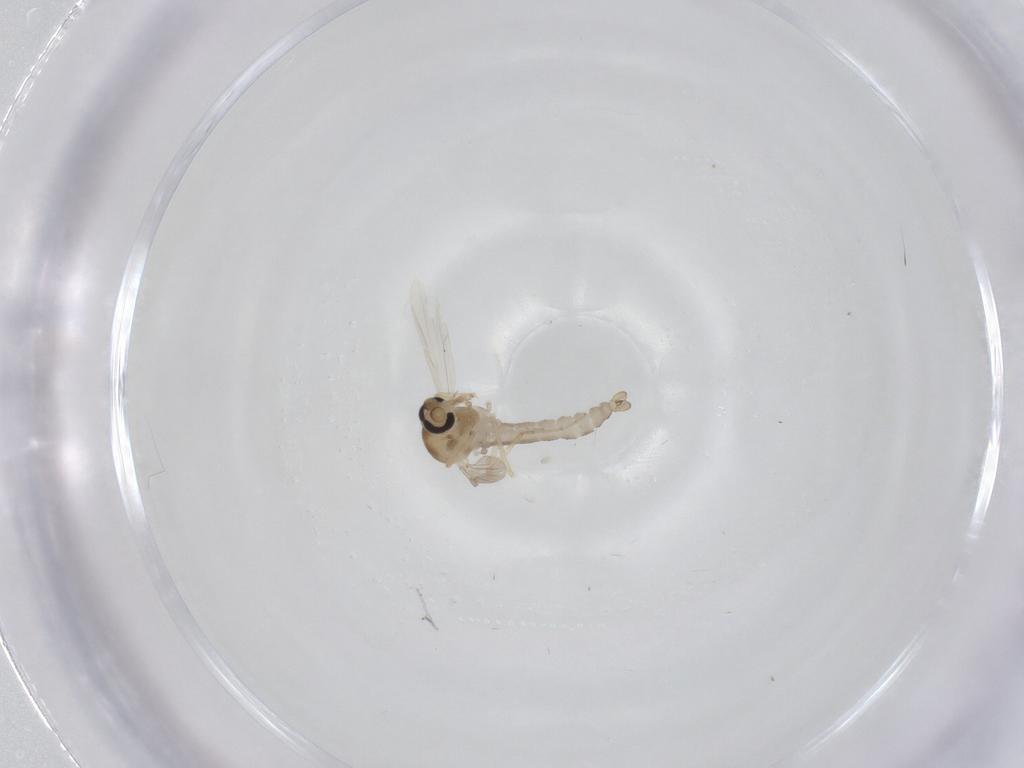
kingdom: Animalia
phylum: Arthropoda
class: Insecta
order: Diptera
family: Ceratopogonidae
